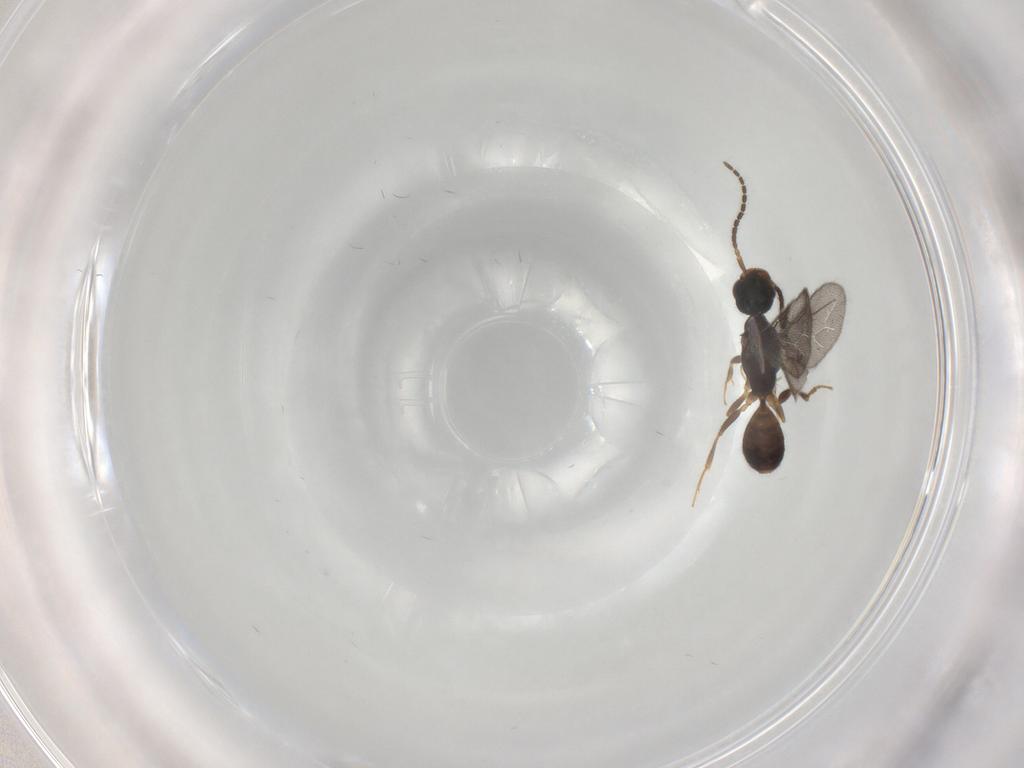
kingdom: Animalia
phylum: Arthropoda
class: Insecta
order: Hymenoptera
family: Bethylidae
